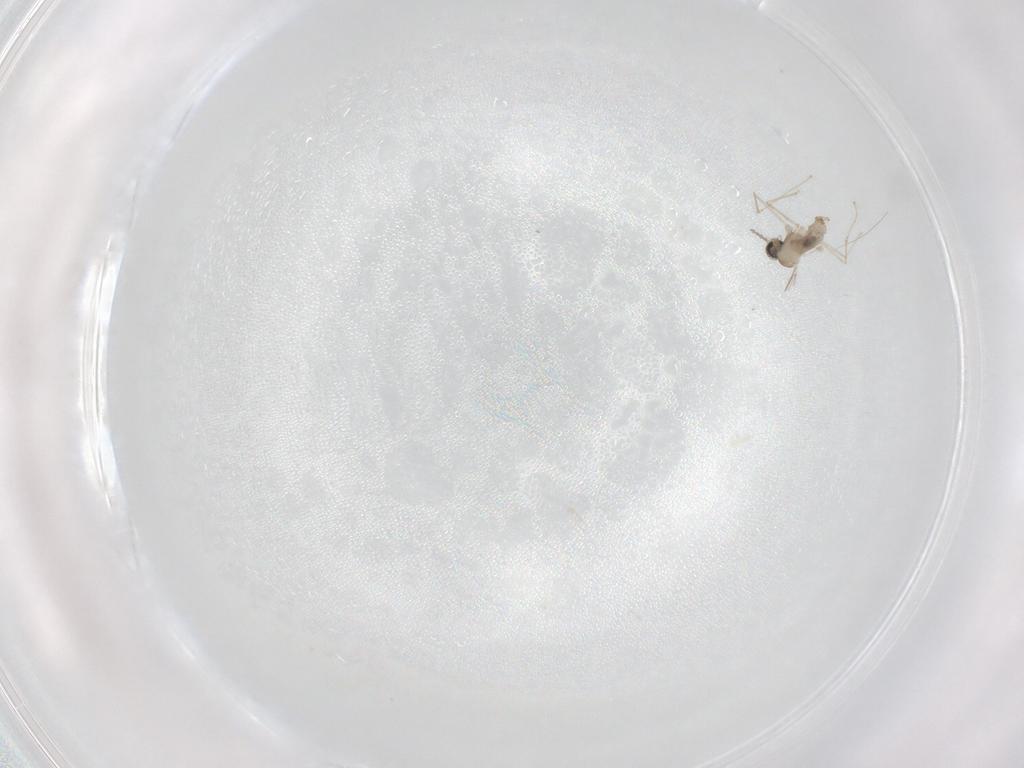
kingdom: Animalia
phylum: Arthropoda
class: Insecta
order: Diptera
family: Cecidomyiidae
